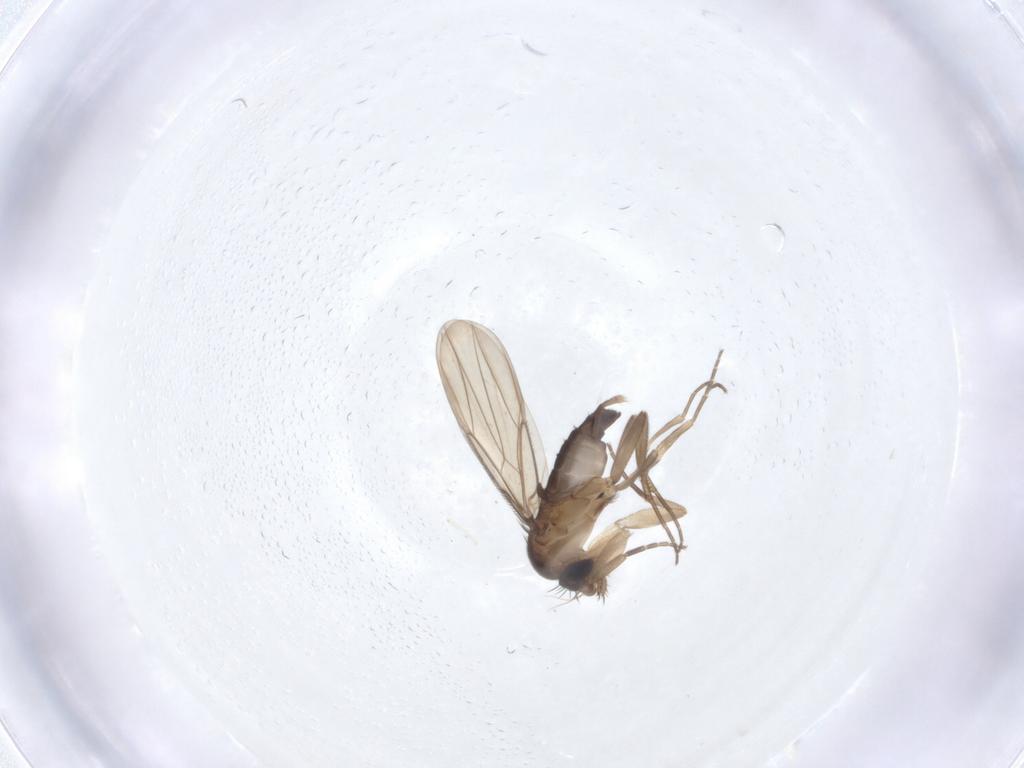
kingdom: Animalia
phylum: Arthropoda
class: Insecta
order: Diptera
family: Phoridae
